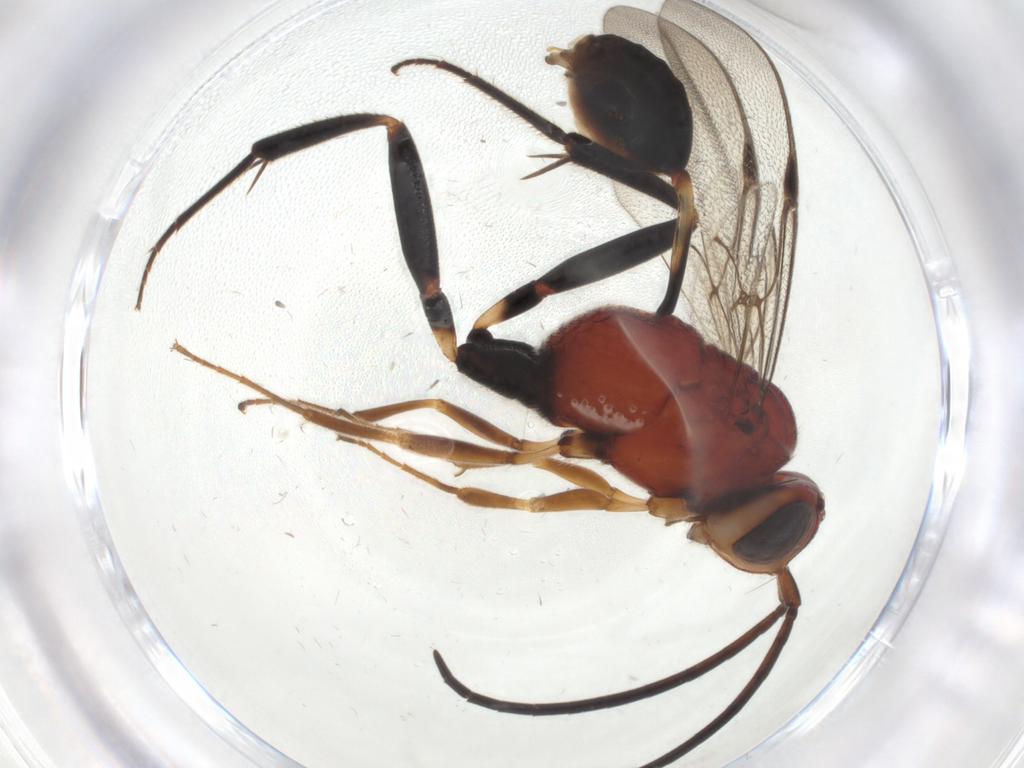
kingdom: Animalia
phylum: Arthropoda
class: Insecta
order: Hymenoptera
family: Evaniidae
